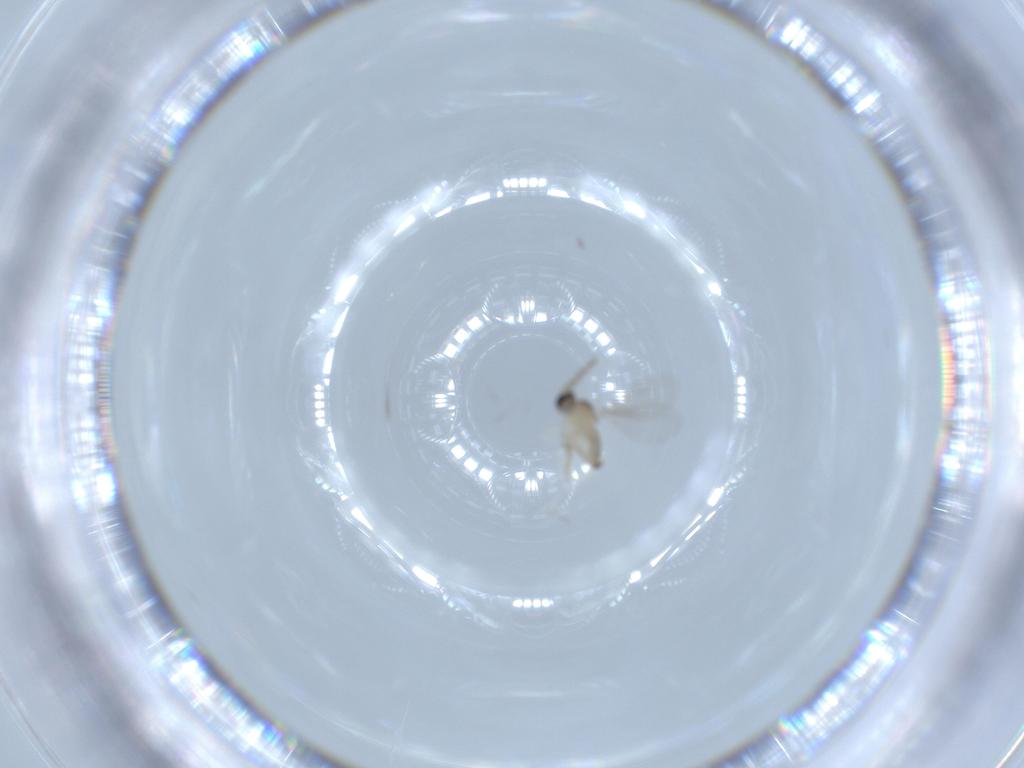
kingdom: Animalia
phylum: Arthropoda
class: Insecta
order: Diptera
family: Cecidomyiidae
